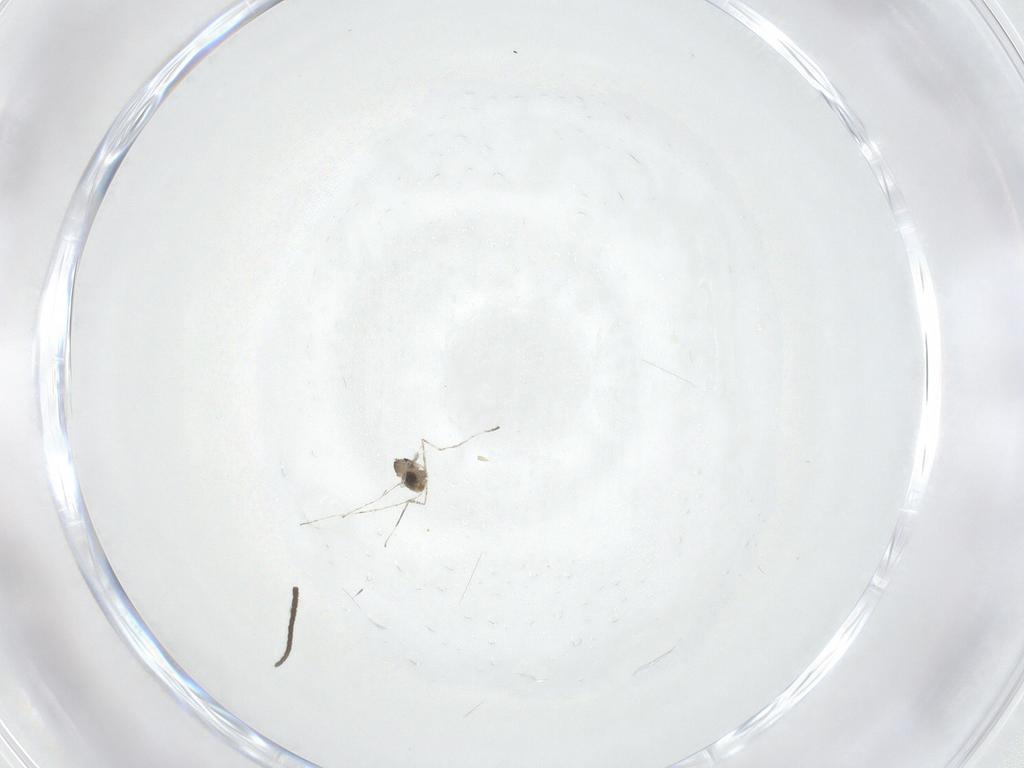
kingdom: Animalia
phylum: Arthropoda
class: Insecta
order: Diptera
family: Cecidomyiidae
